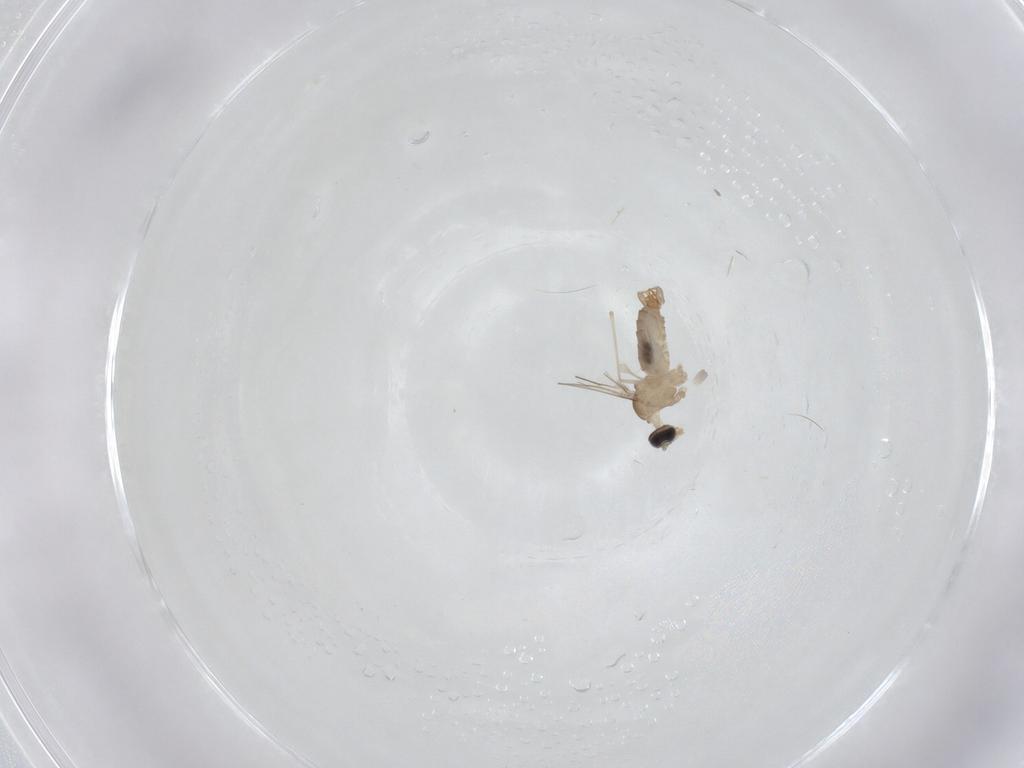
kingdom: Animalia
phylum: Arthropoda
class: Insecta
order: Diptera
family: Cecidomyiidae
